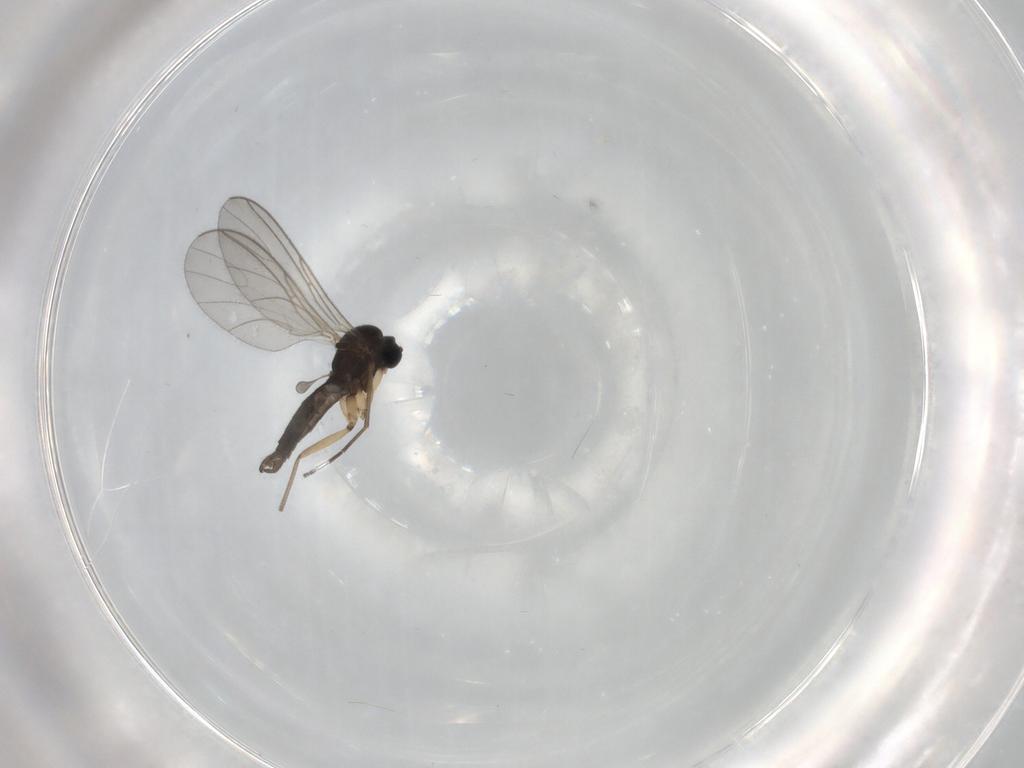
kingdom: Animalia
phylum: Arthropoda
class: Insecta
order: Diptera
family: Sciaridae
